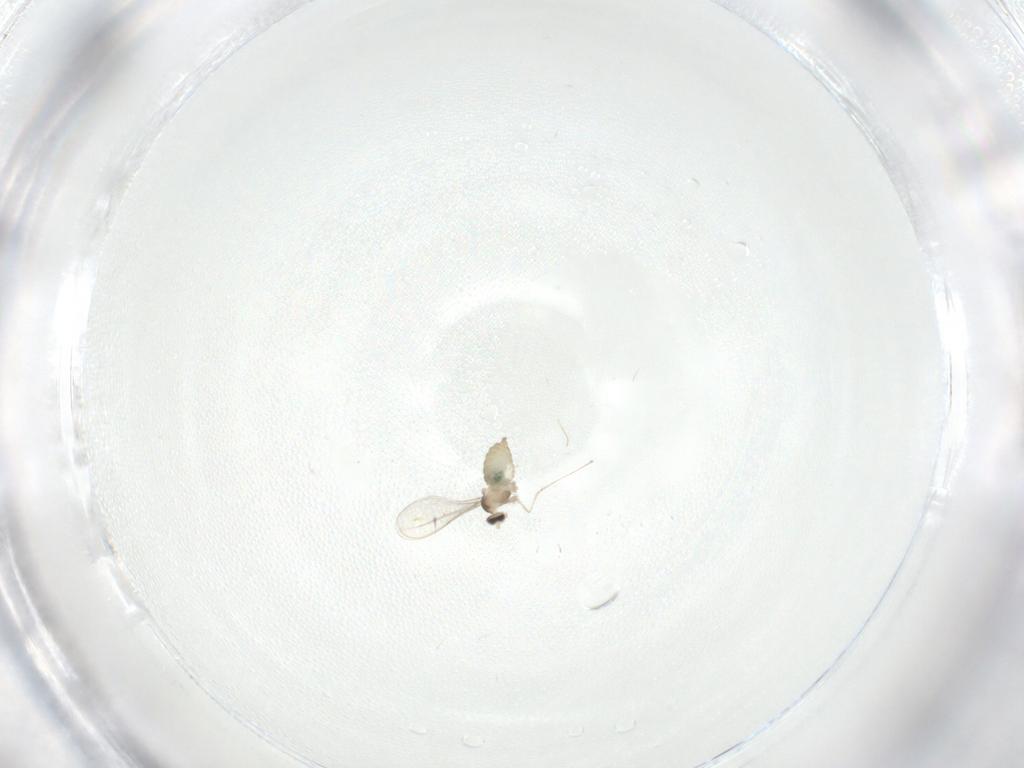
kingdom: Animalia
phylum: Arthropoda
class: Insecta
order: Diptera
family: Cecidomyiidae
